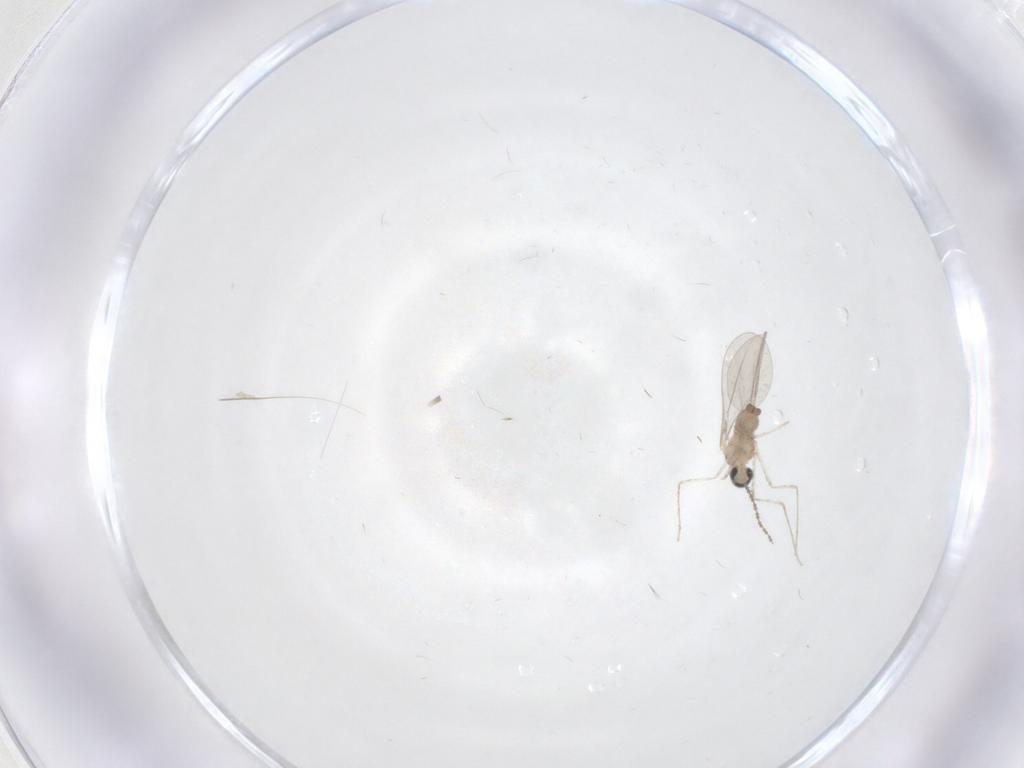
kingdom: Animalia
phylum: Arthropoda
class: Insecta
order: Diptera
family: Cecidomyiidae
